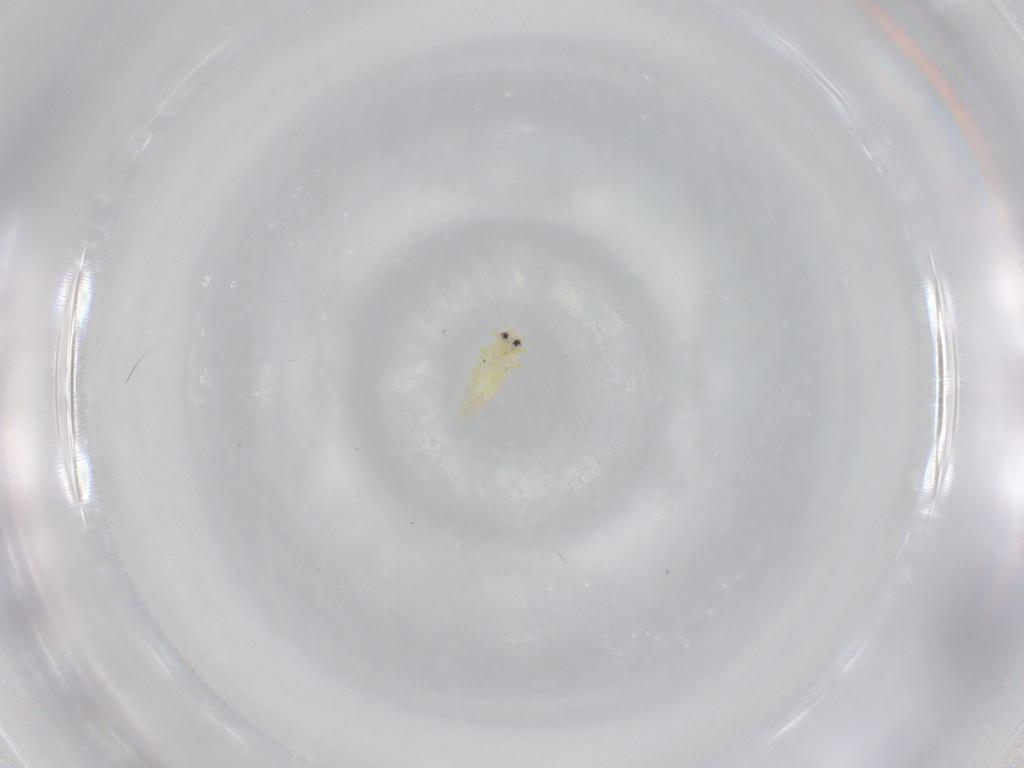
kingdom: Animalia
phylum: Arthropoda
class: Insecta
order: Hemiptera
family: Aleyrodidae
